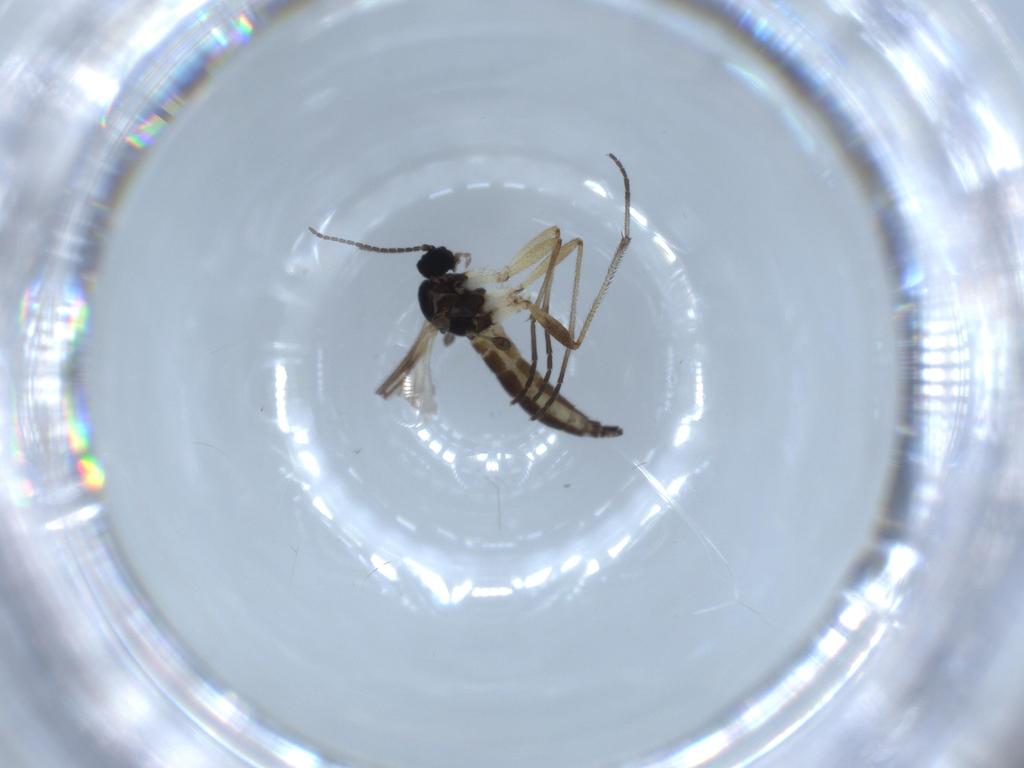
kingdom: Animalia
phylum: Arthropoda
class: Insecta
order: Diptera
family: Sciaridae
